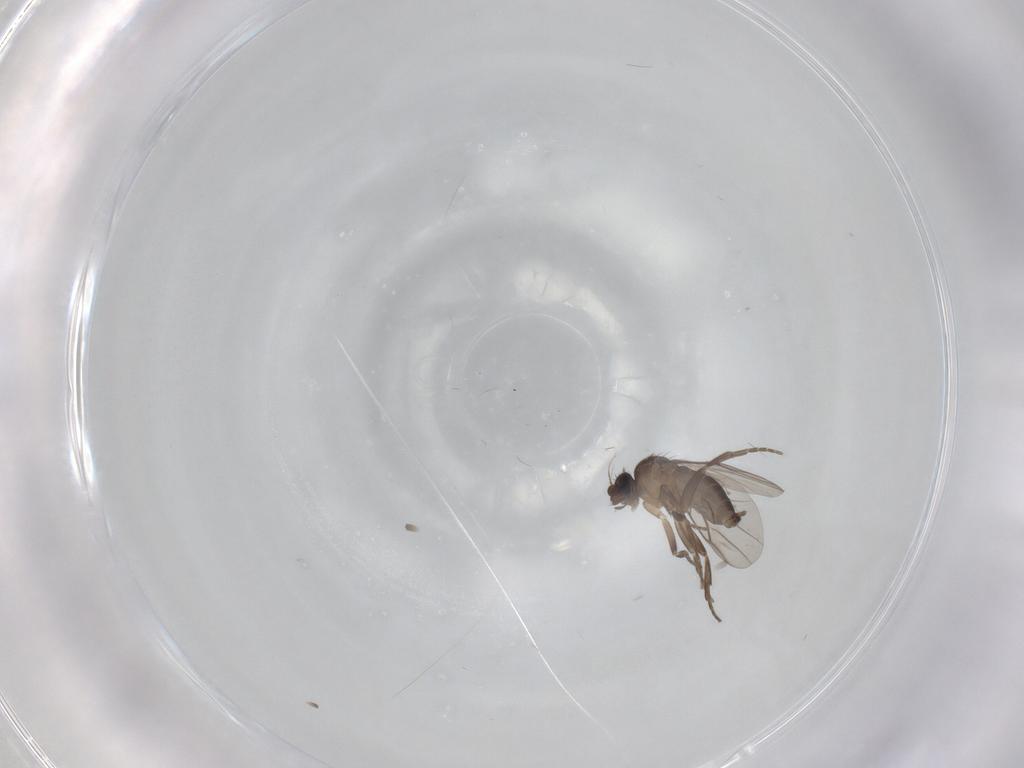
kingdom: Animalia
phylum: Arthropoda
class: Insecta
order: Diptera
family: Phoridae
